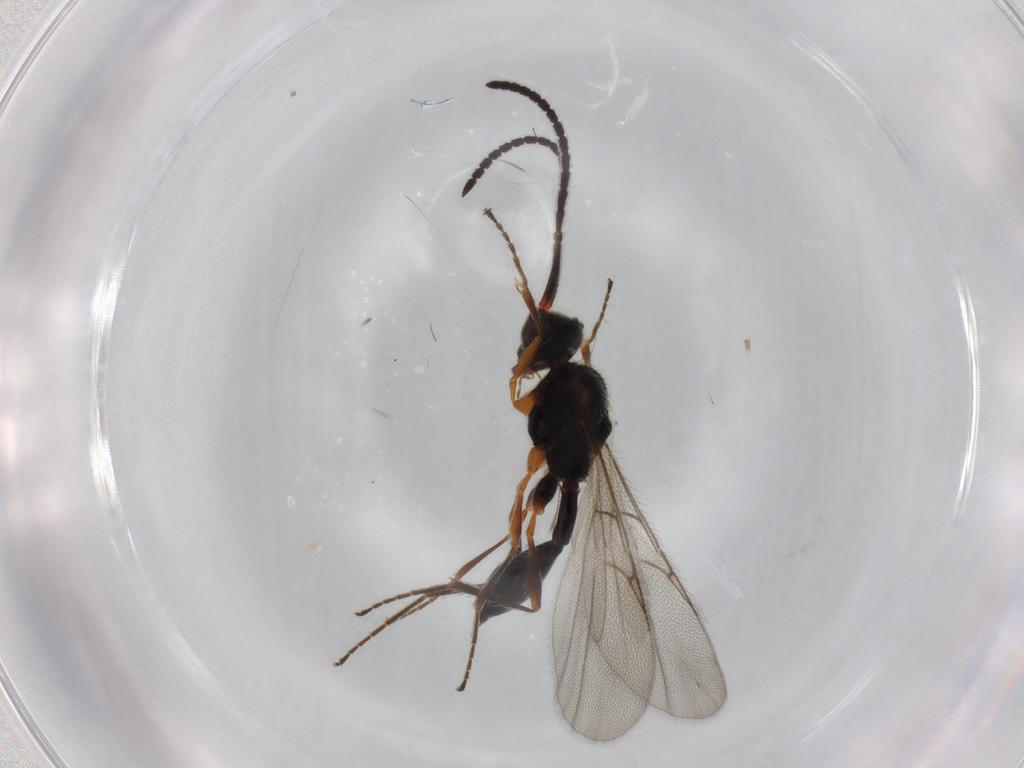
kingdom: Animalia
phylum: Arthropoda
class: Insecta
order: Hymenoptera
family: Diapriidae
